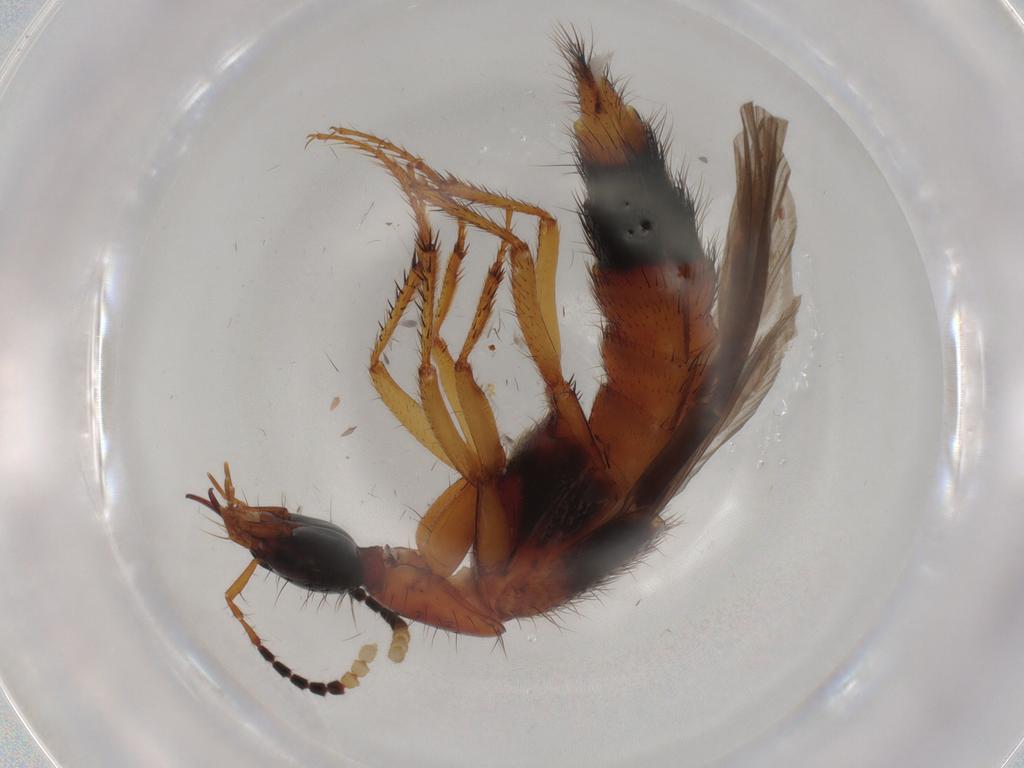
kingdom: Animalia
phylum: Arthropoda
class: Insecta
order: Coleoptera
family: Staphylinidae
